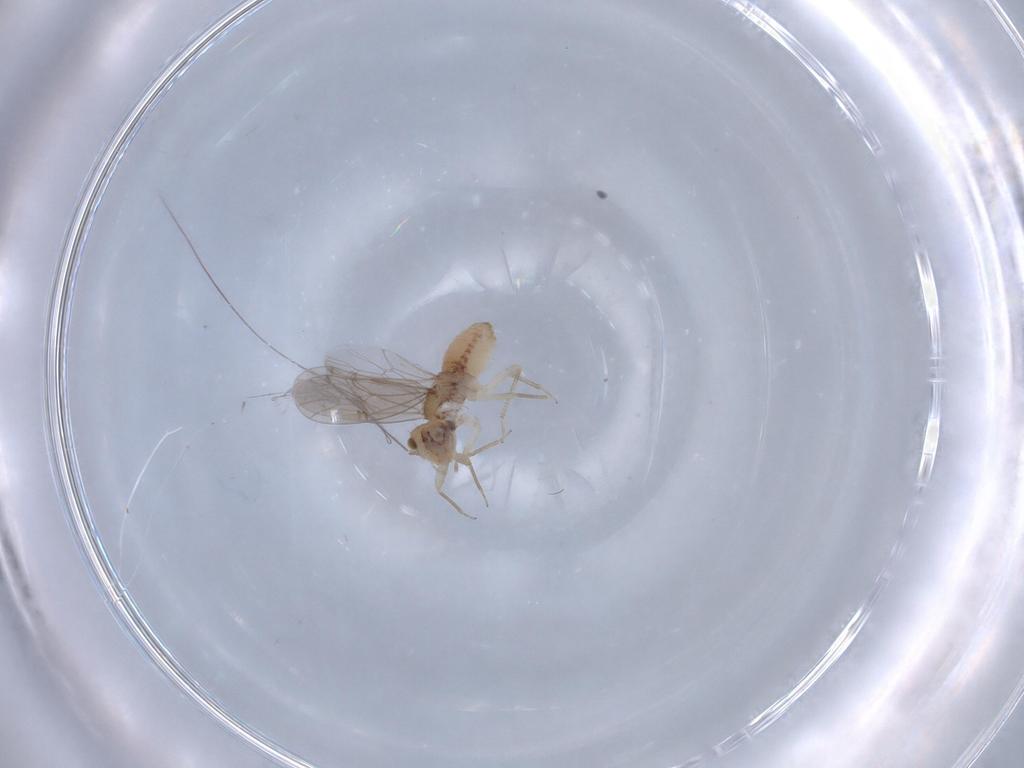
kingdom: Animalia
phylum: Arthropoda
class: Insecta
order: Psocodea
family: Ectopsocidae
